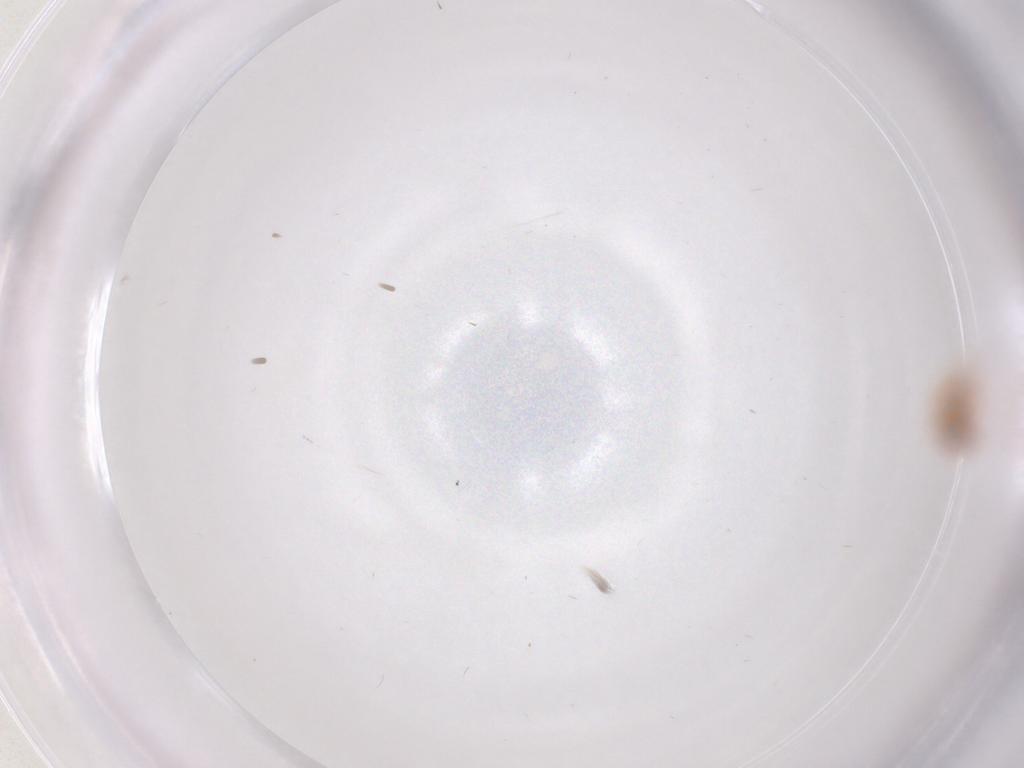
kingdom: Animalia
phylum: Arthropoda
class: Insecta
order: Hemiptera
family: Aleyrodidae
